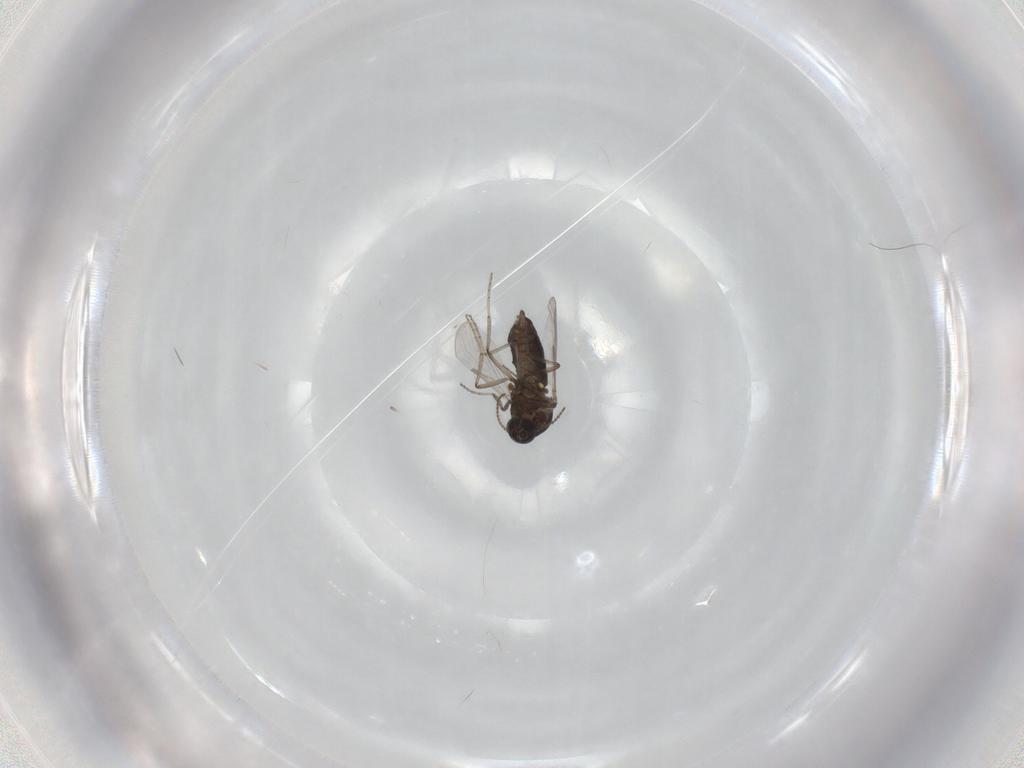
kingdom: Animalia
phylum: Arthropoda
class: Insecta
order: Diptera
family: Ceratopogonidae
